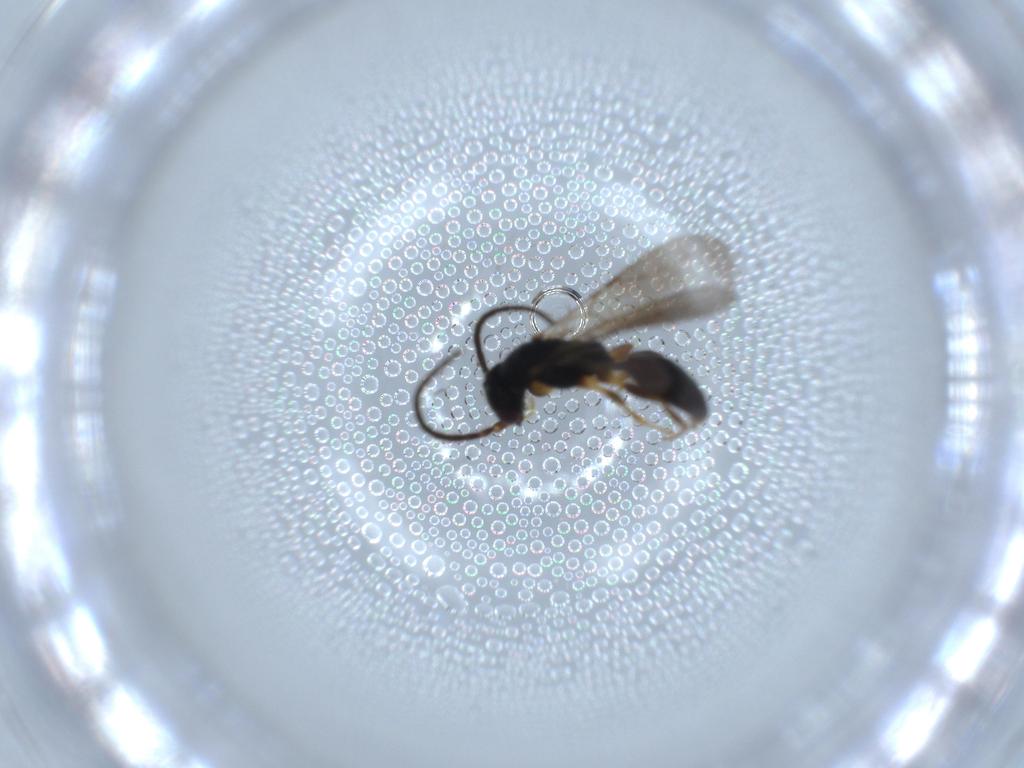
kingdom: Animalia
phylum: Arthropoda
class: Insecta
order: Hymenoptera
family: Bethylidae
